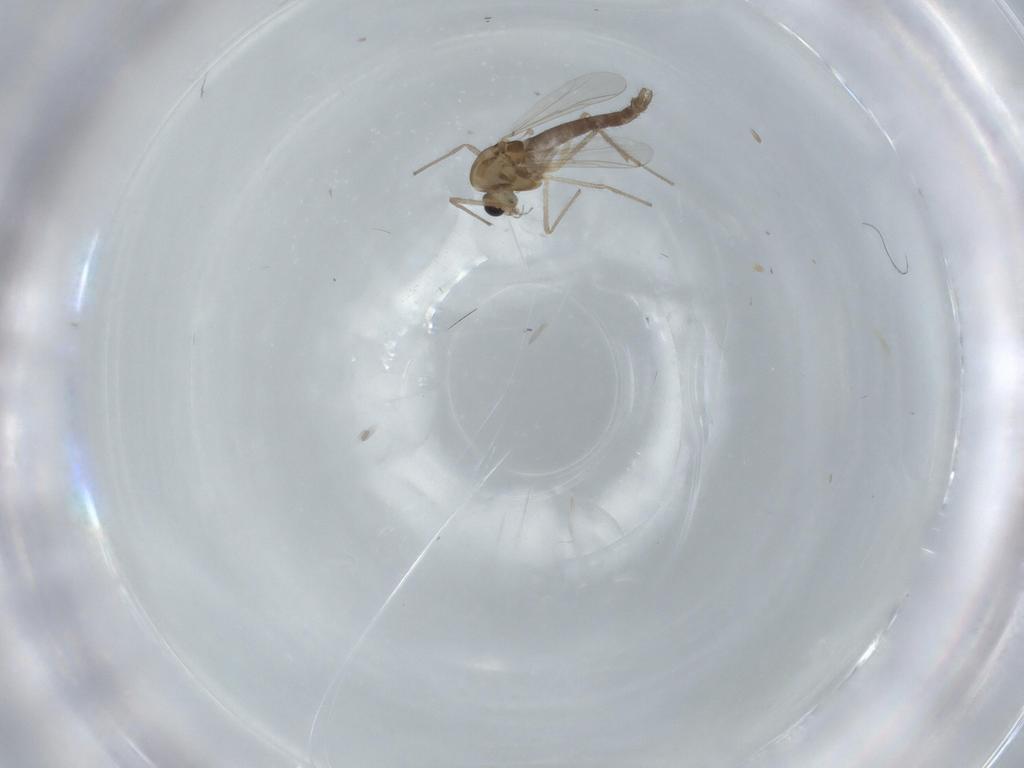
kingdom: Animalia
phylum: Arthropoda
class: Insecta
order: Diptera
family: Chironomidae
